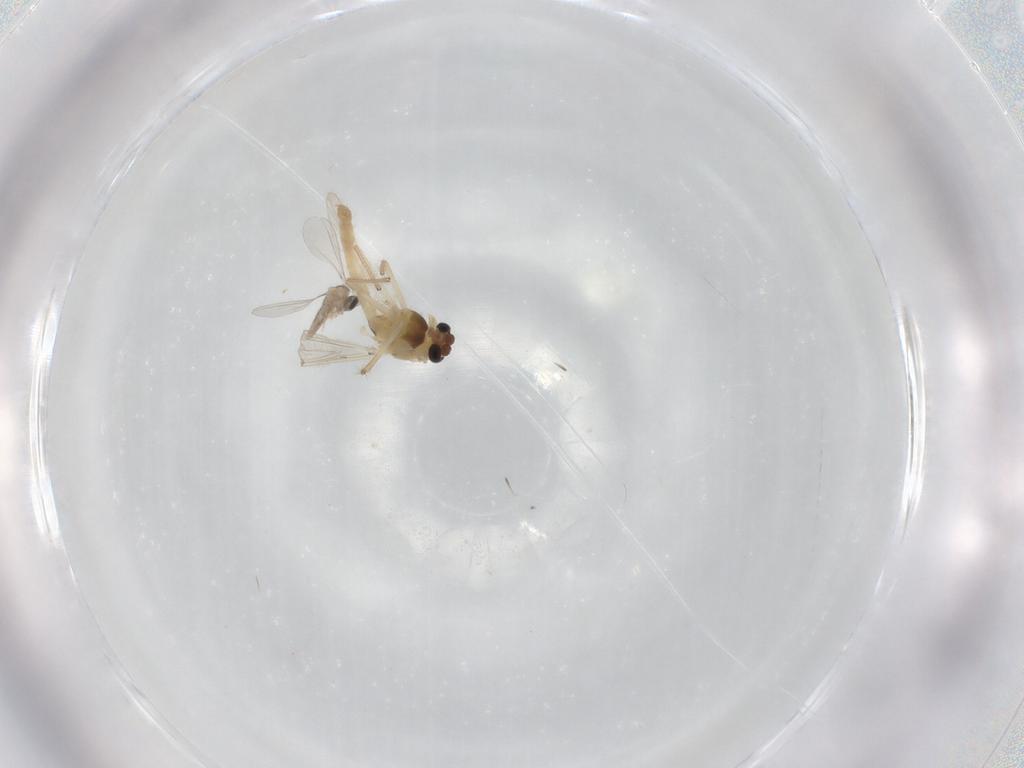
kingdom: Animalia
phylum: Arthropoda
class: Insecta
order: Diptera
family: Chironomidae
